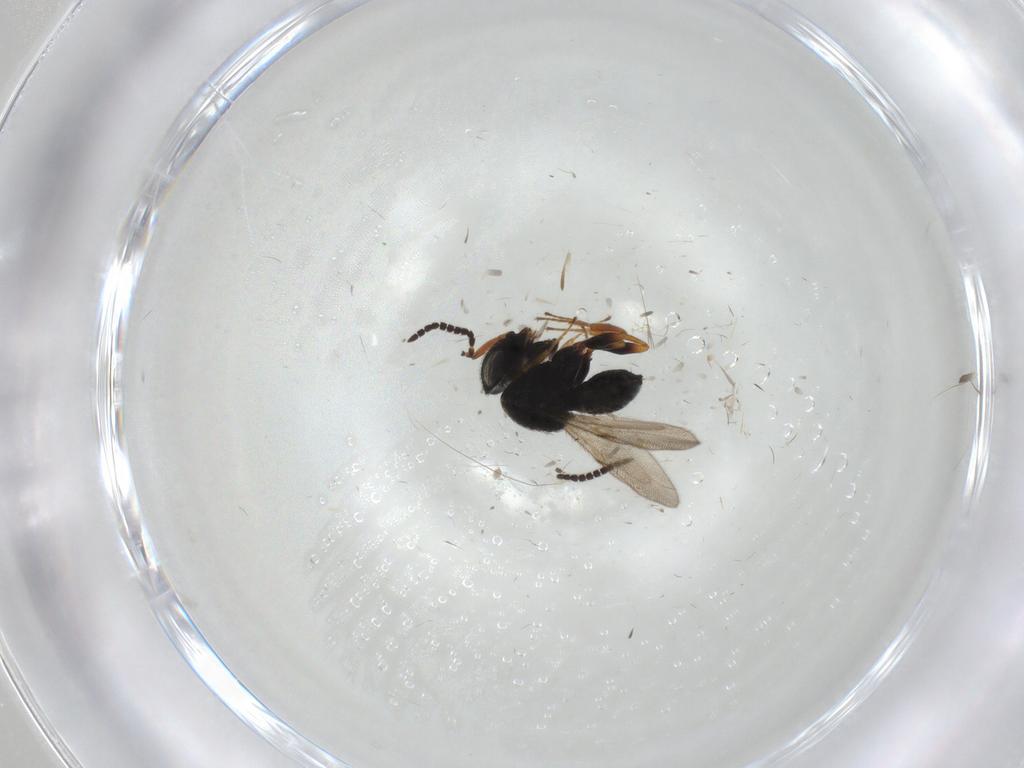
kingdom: Animalia
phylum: Arthropoda
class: Insecta
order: Hymenoptera
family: Scelionidae
